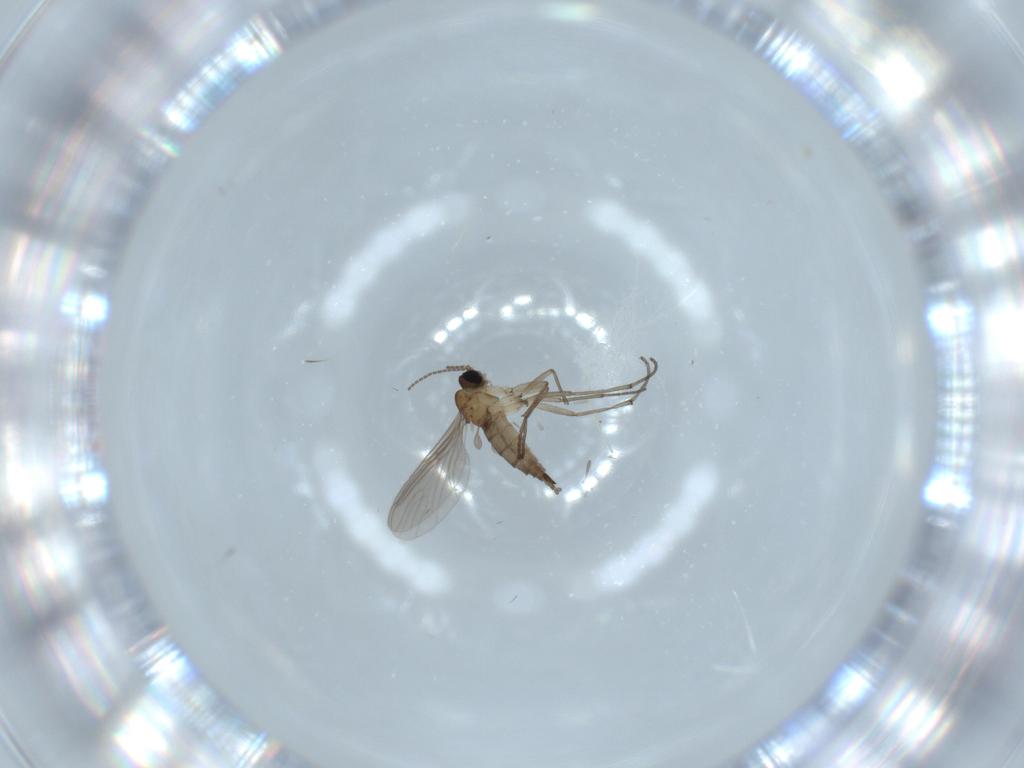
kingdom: Animalia
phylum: Arthropoda
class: Insecta
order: Diptera
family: Sciaridae
